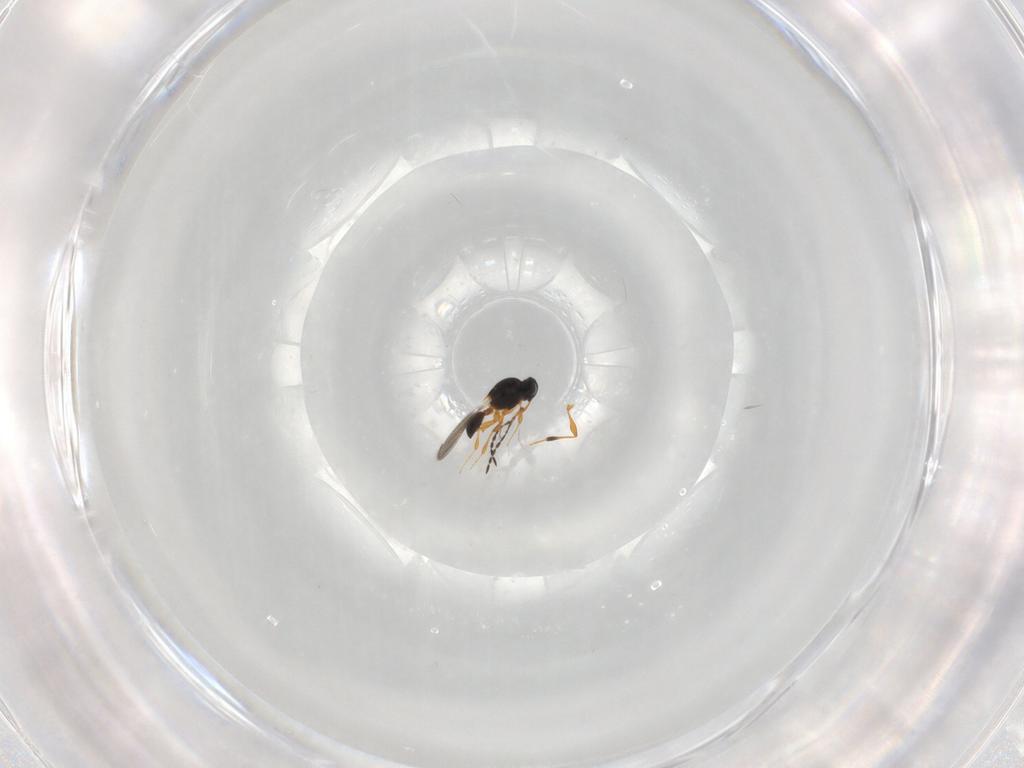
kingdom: Animalia
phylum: Arthropoda
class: Insecta
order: Hymenoptera
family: Platygastridae
